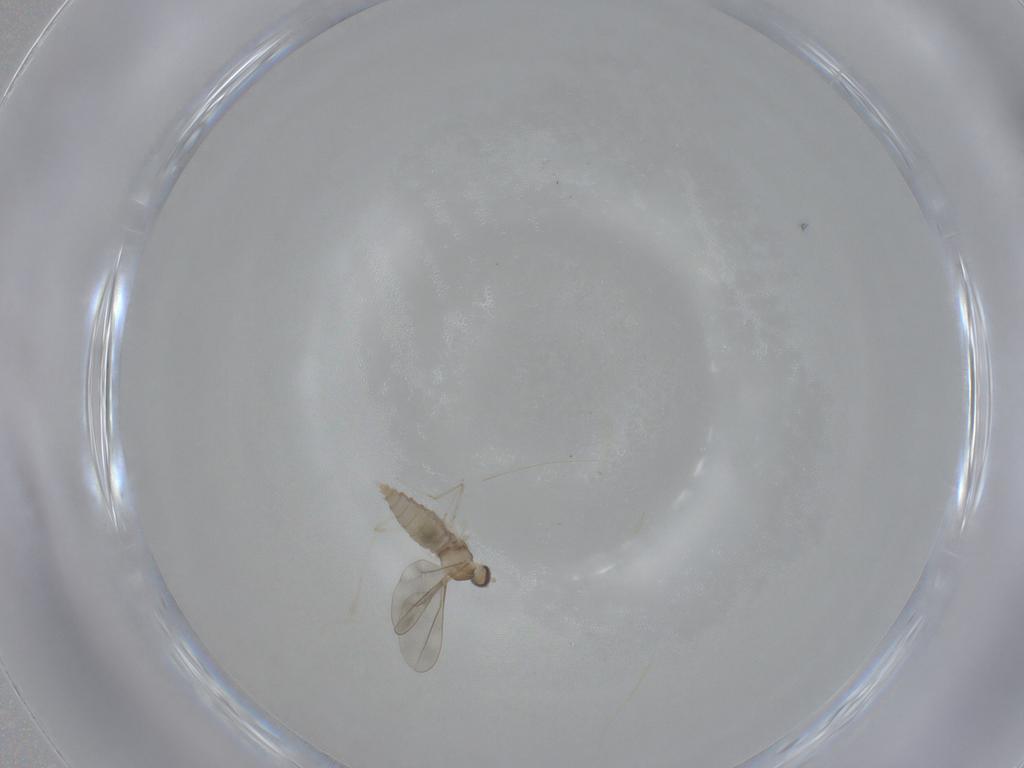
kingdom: Animalia
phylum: Arthropoda
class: Insecta
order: Diptera
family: Cecidomyiidae
